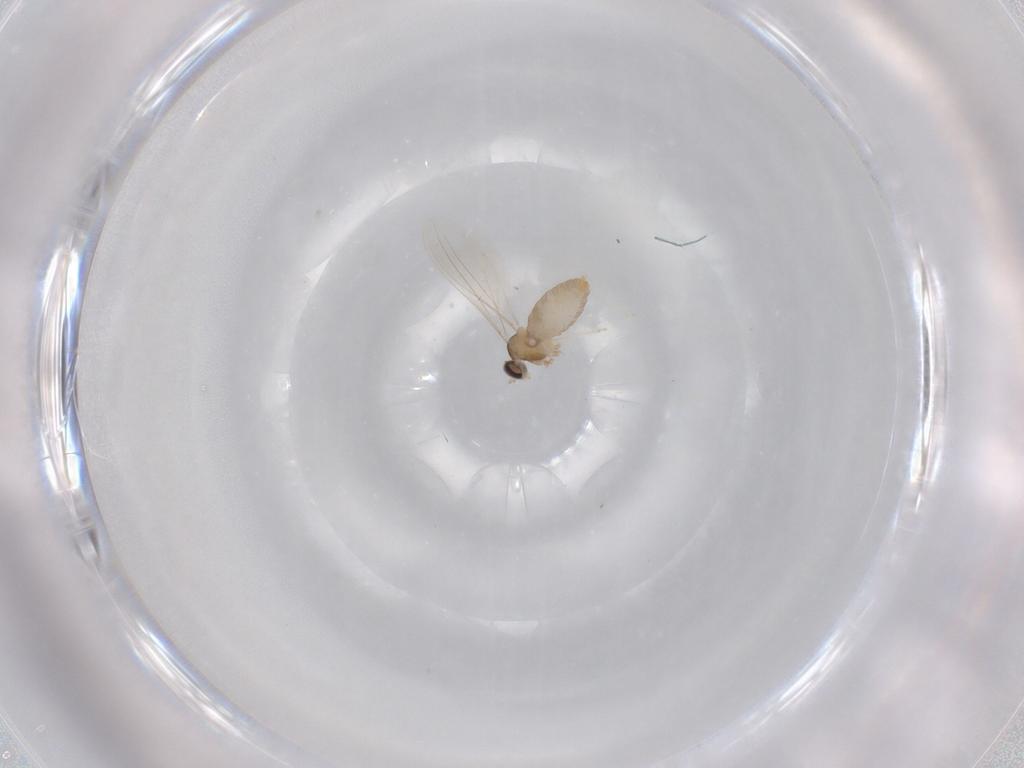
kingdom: Animalia
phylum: Arthropoda
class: Insecta
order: Diptera
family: Cecidomyiidae
